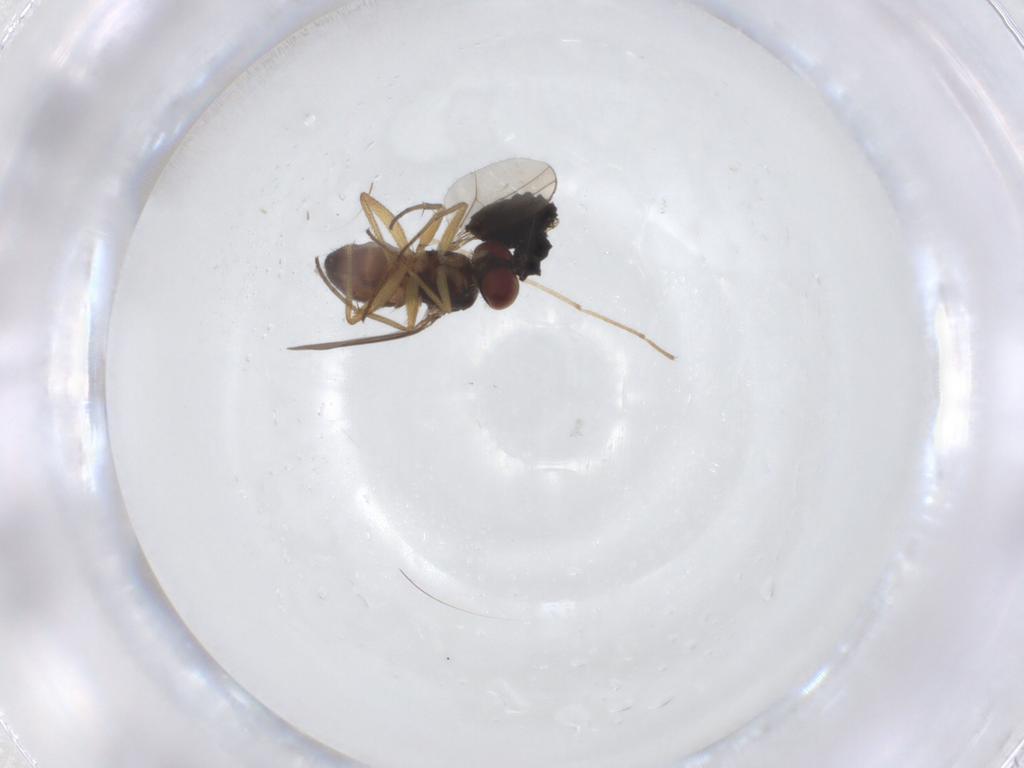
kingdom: Animalia
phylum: Arthropoda
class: Insecta
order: Diptera
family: Dolichopodidae
